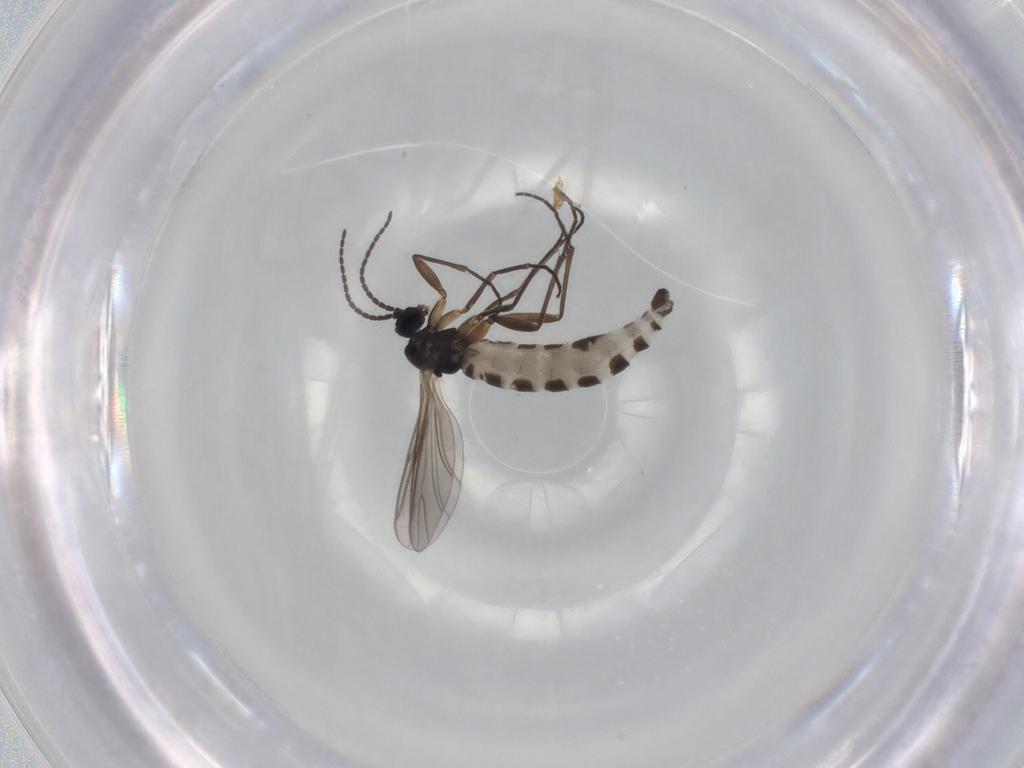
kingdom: Animalia
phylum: Arthropoda
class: Insecta
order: Diptera
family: Sciaridae
